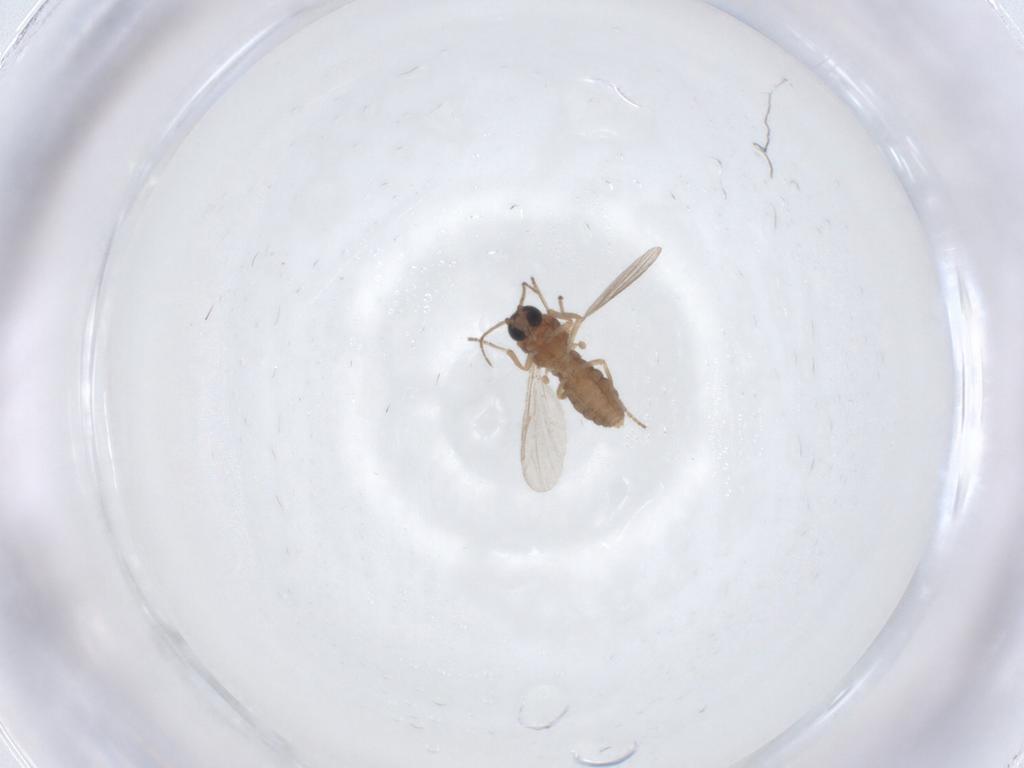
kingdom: Animalia
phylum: Arthropoda
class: Insecta
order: Diptera
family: Ceratopogonidae
